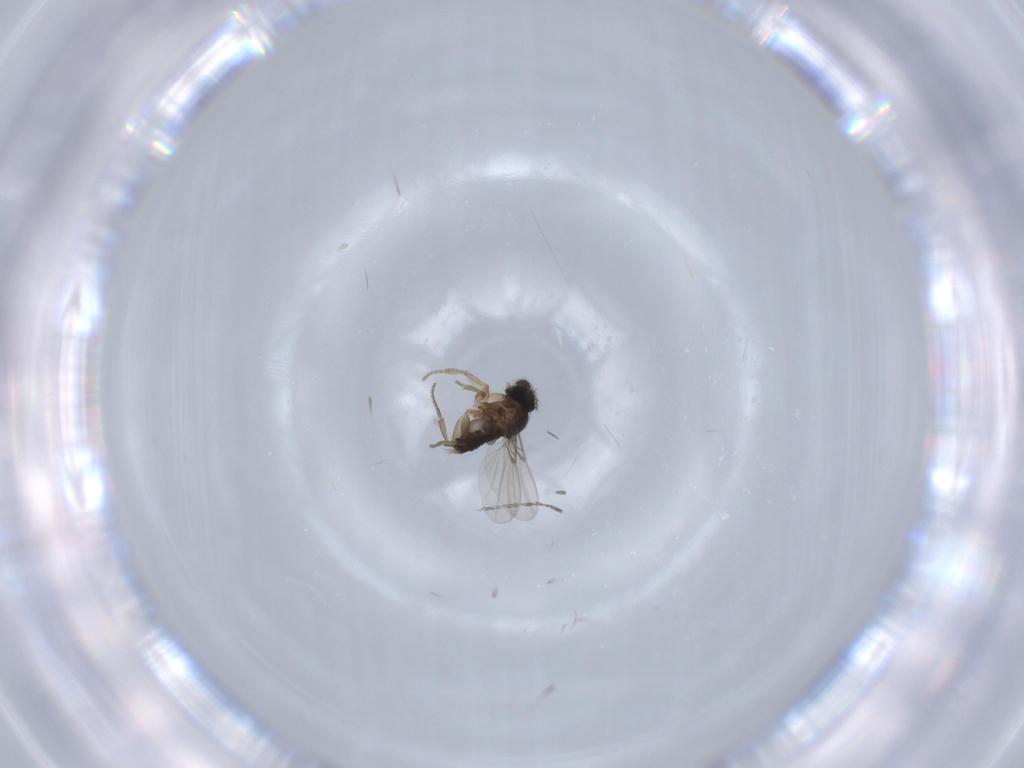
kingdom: Animalia
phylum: Arthropoda
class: Insecta
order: Diptera
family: Phoridae
